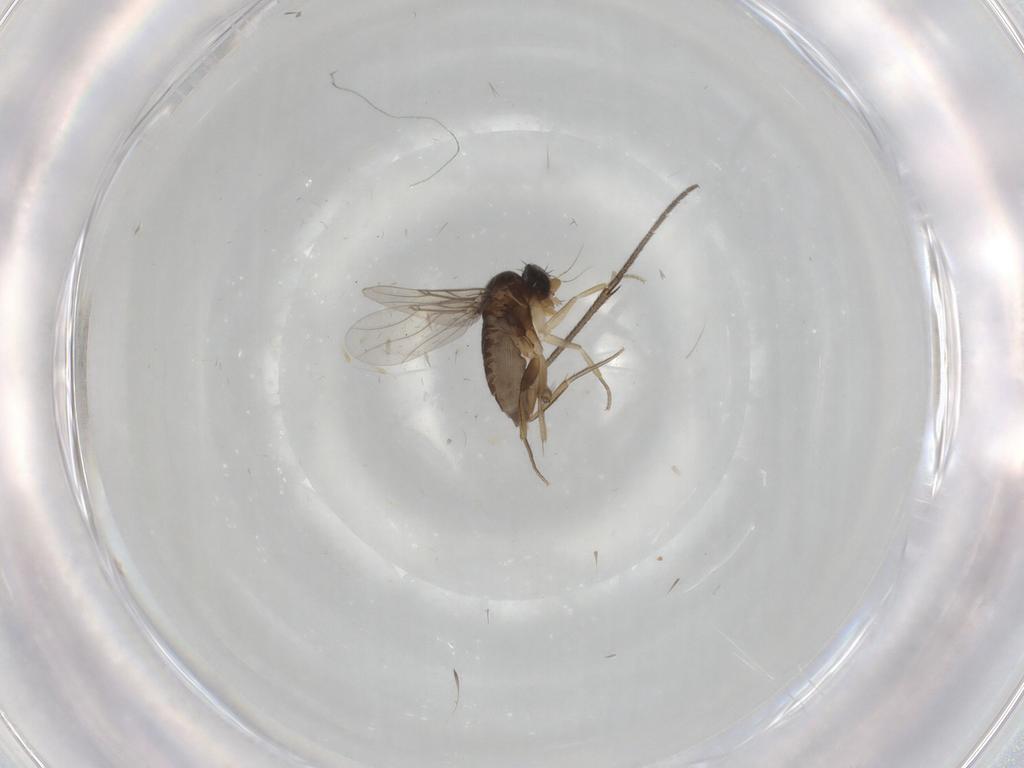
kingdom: Animalia
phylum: Arthropoda
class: Insecta
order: Diptera
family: Phoridae
